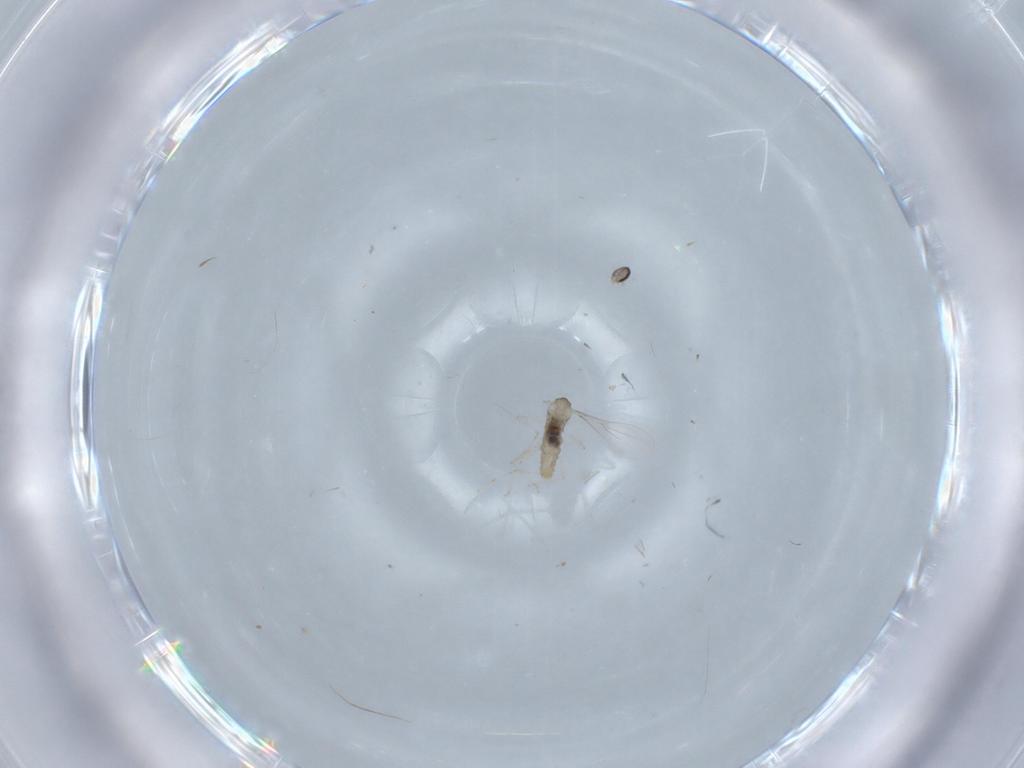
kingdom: Animalia
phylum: Arthropoda
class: Insecta
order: Diptera
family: Cecidomyiidae
